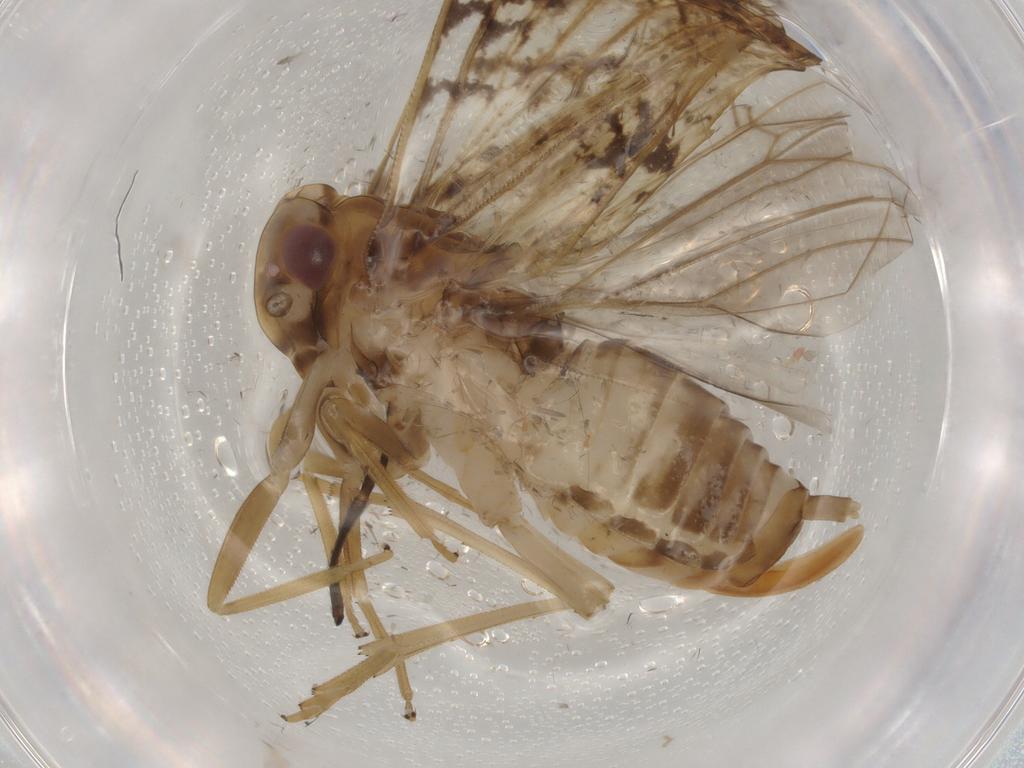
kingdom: Animalia
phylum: Arthropoda
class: Insecta
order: Hemiptera
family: Cixiidae
